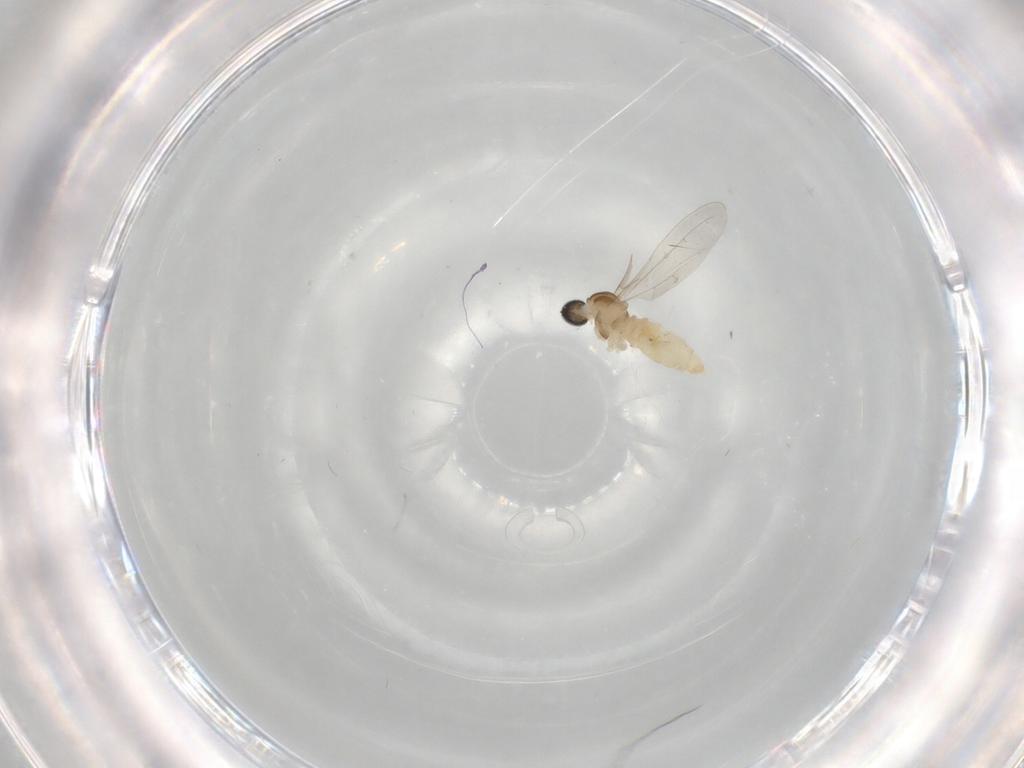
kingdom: Animalia
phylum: Arthropoda
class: Insecta
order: Diptera
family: Cecidomyiidae
